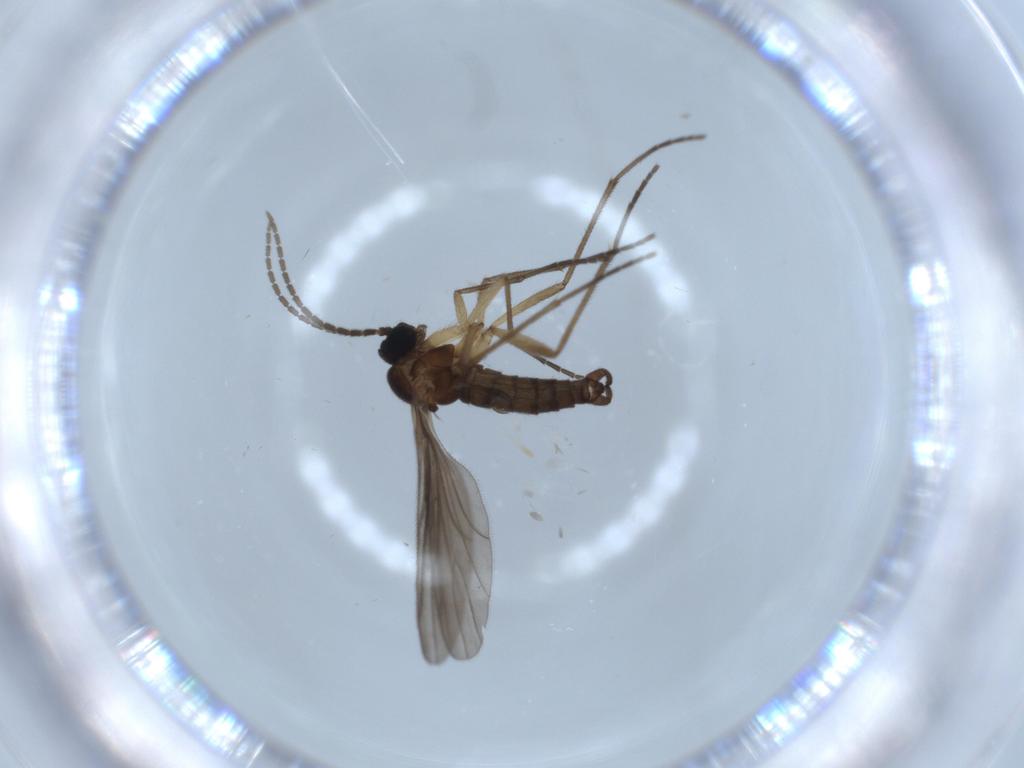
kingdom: Animalia
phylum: Arthropoda
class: Insecta
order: Diptera
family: Sciaridae
